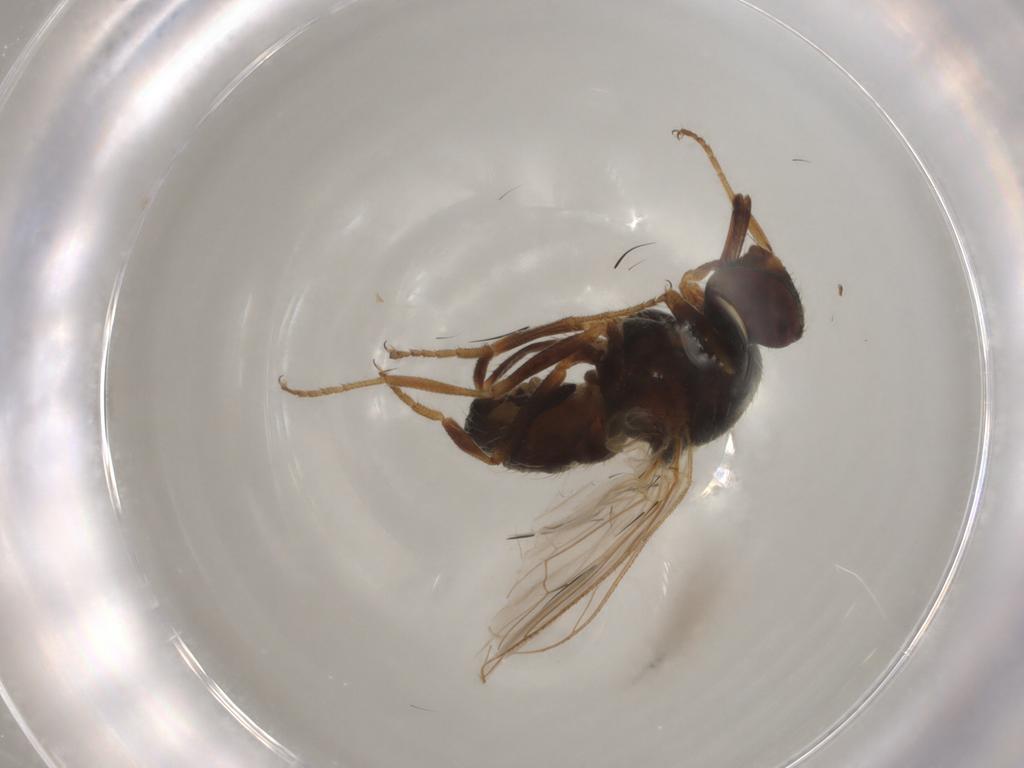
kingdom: Animalia
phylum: Arthropoda
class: Insecta
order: Diptera
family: Muscidae
